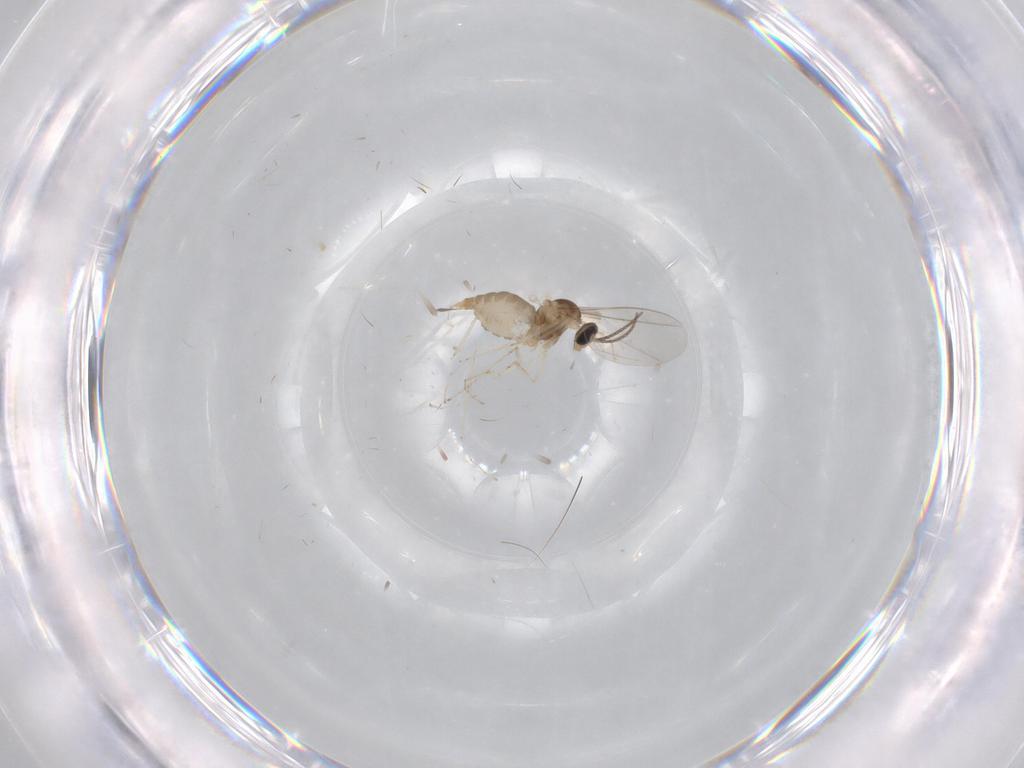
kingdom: Animalia
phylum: Arthropoda
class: Insecta
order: Diptera
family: Cecidomyiidae
